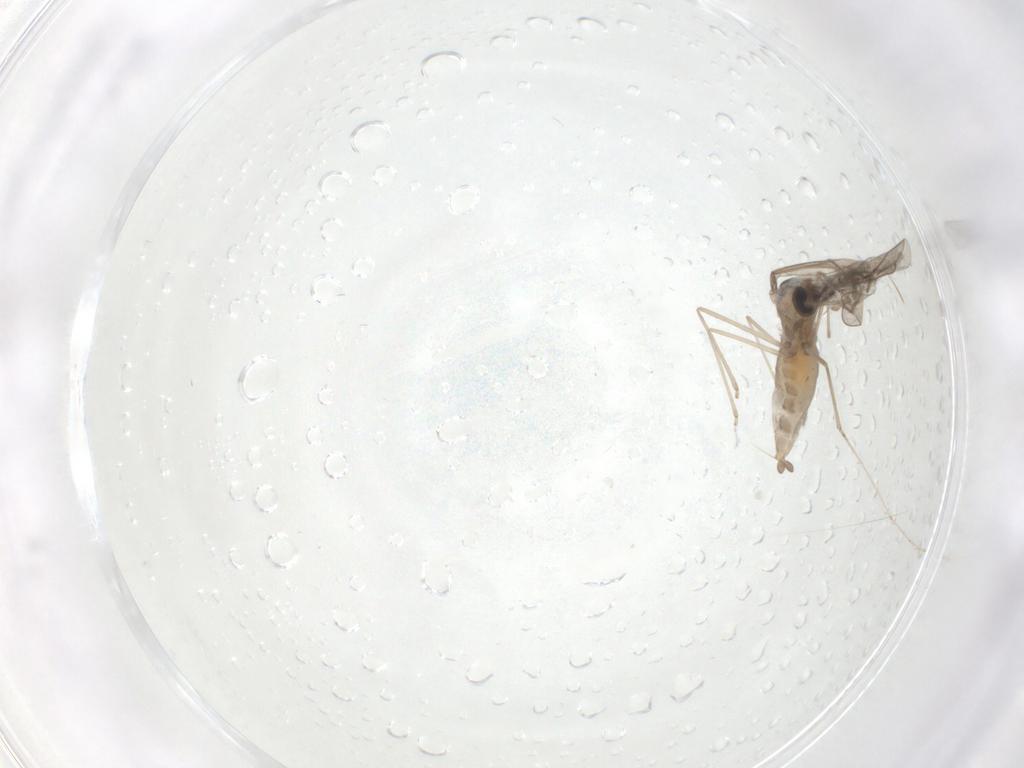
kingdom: Animalia
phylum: Arthropoda
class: Insecta
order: Diptera
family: Cecidomyiidae
